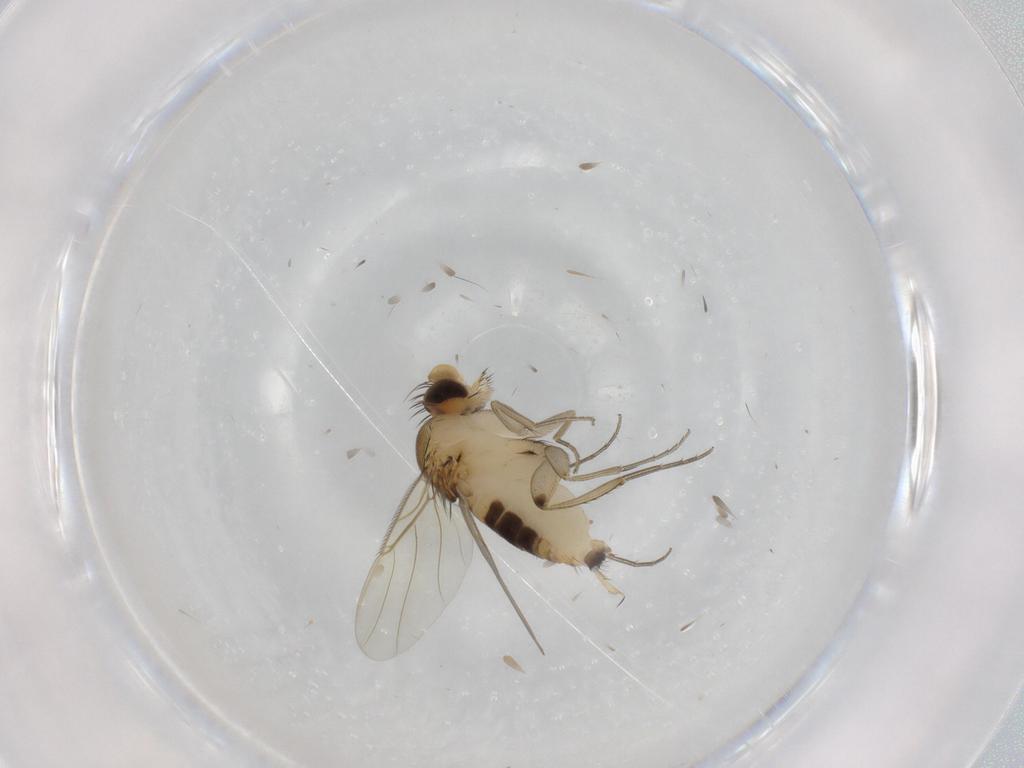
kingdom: Animalia
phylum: Arthropoda
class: Insecta
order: Diptera
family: Phoridae
